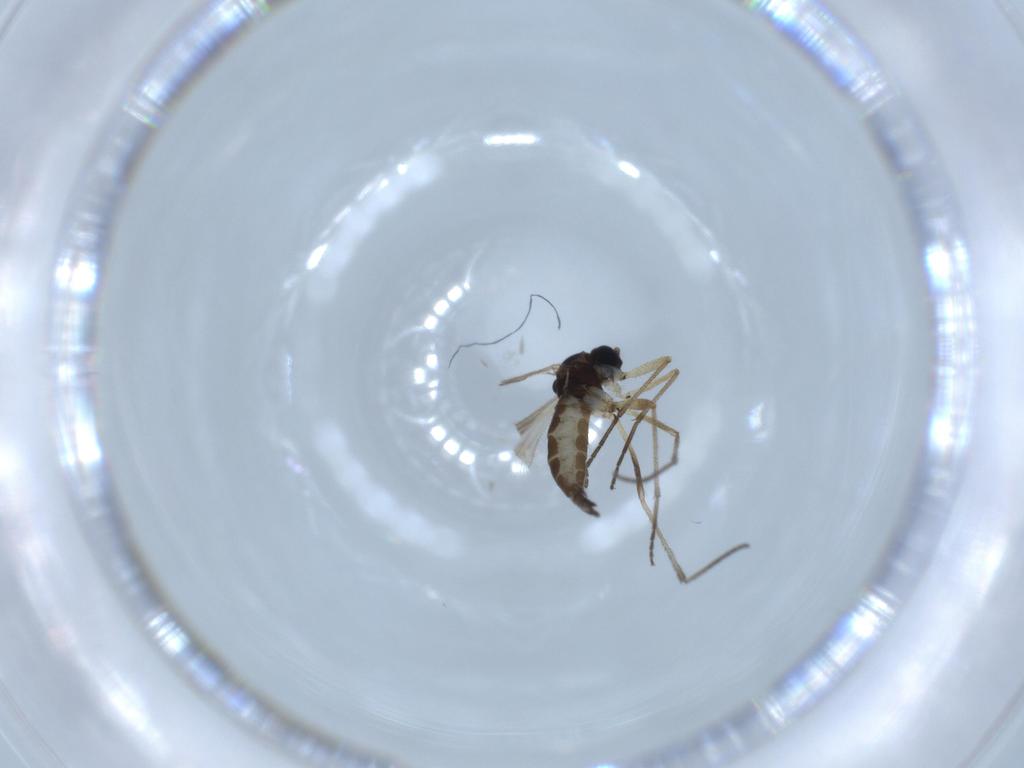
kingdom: Animalia
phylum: Arthropoda
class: Insecta
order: Diptera
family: Sciaridae
